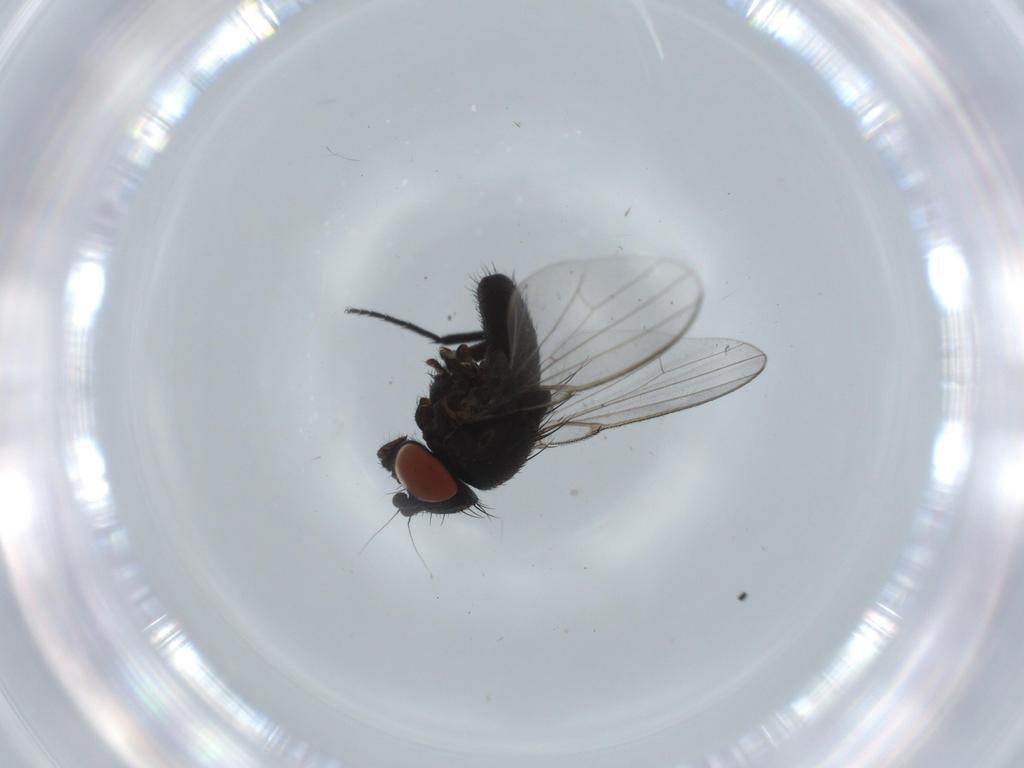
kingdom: Animalia
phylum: Arthropoda
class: Insecta
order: Diptera
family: Milichiidae
